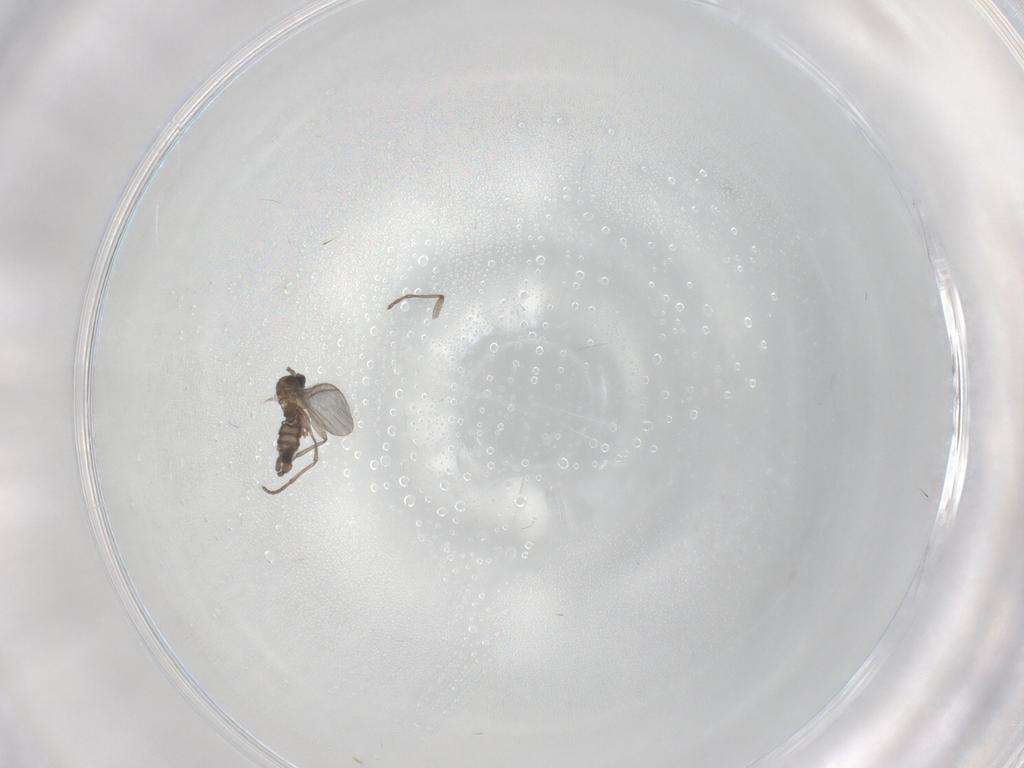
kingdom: Animalia
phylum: Arthropoda
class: Insecta
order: Diptera
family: Sciaridae
